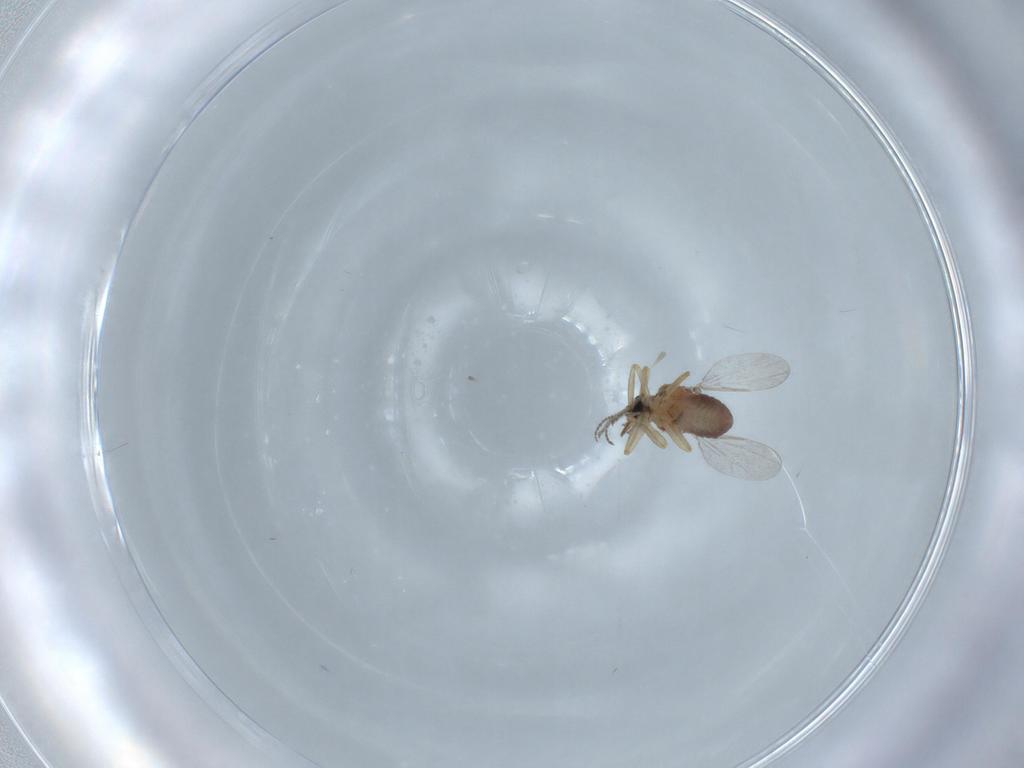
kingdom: Animalia
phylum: Arthropoda
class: Insecta
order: Diptera
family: Ceratopogonidae
